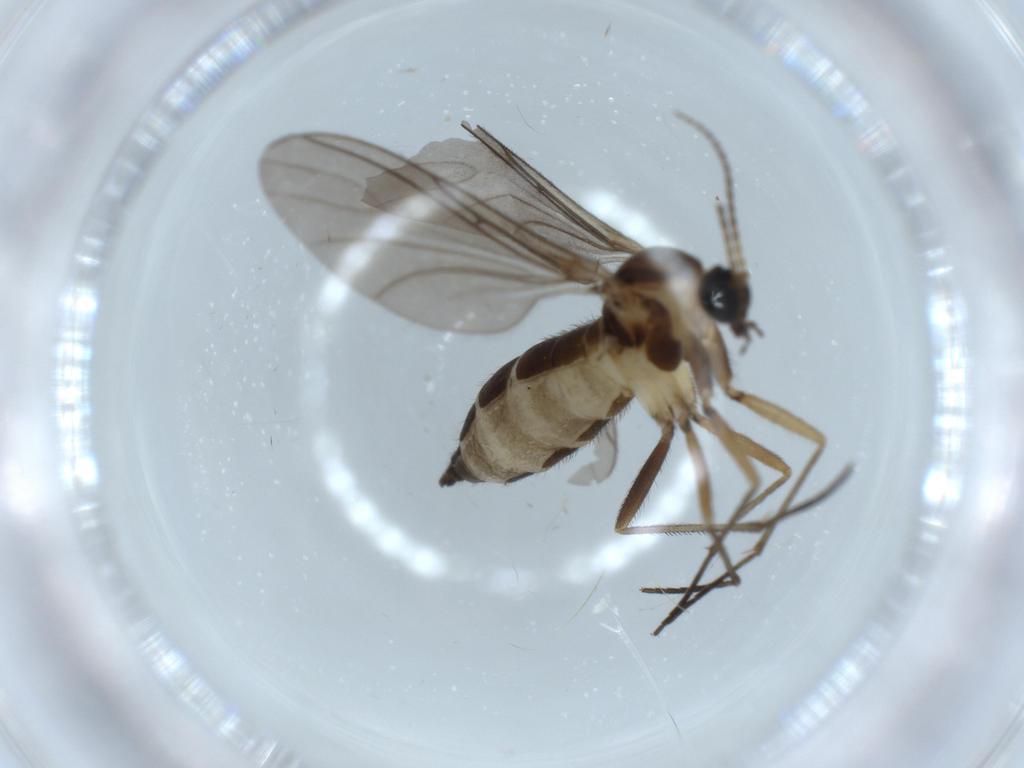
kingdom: Animalia
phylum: Arthropoda
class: Insecta
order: Diptera
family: Sciaridae
